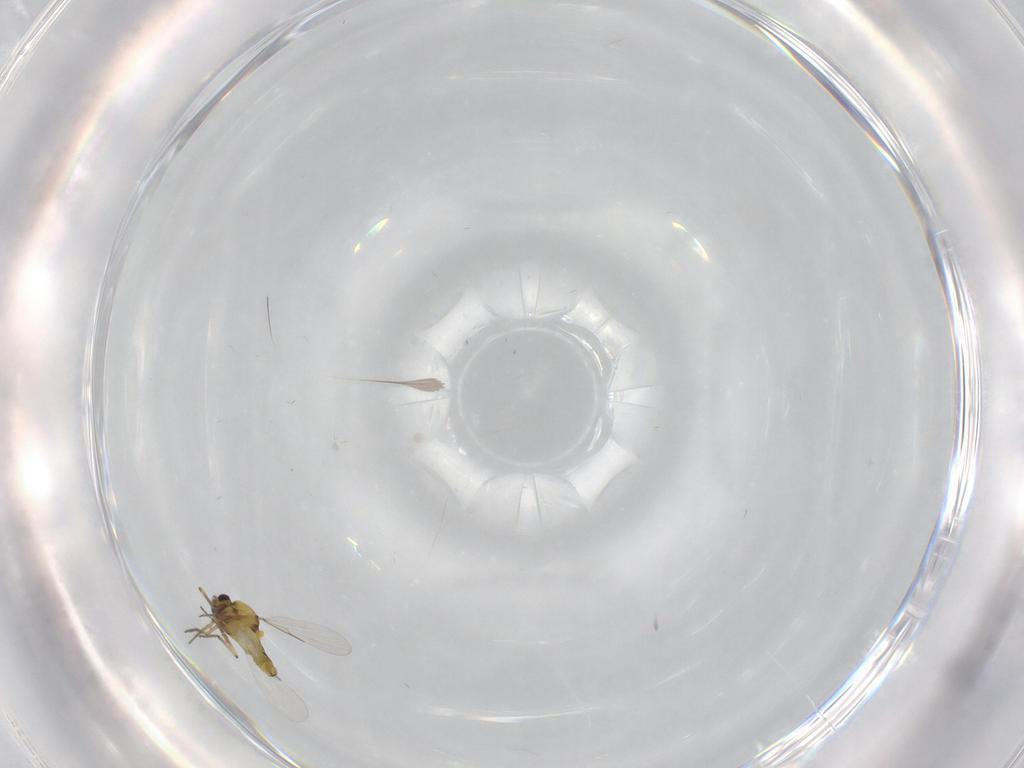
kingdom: Animalia
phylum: Arthropoda
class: Insecta
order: Diptera
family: Sciaridae
